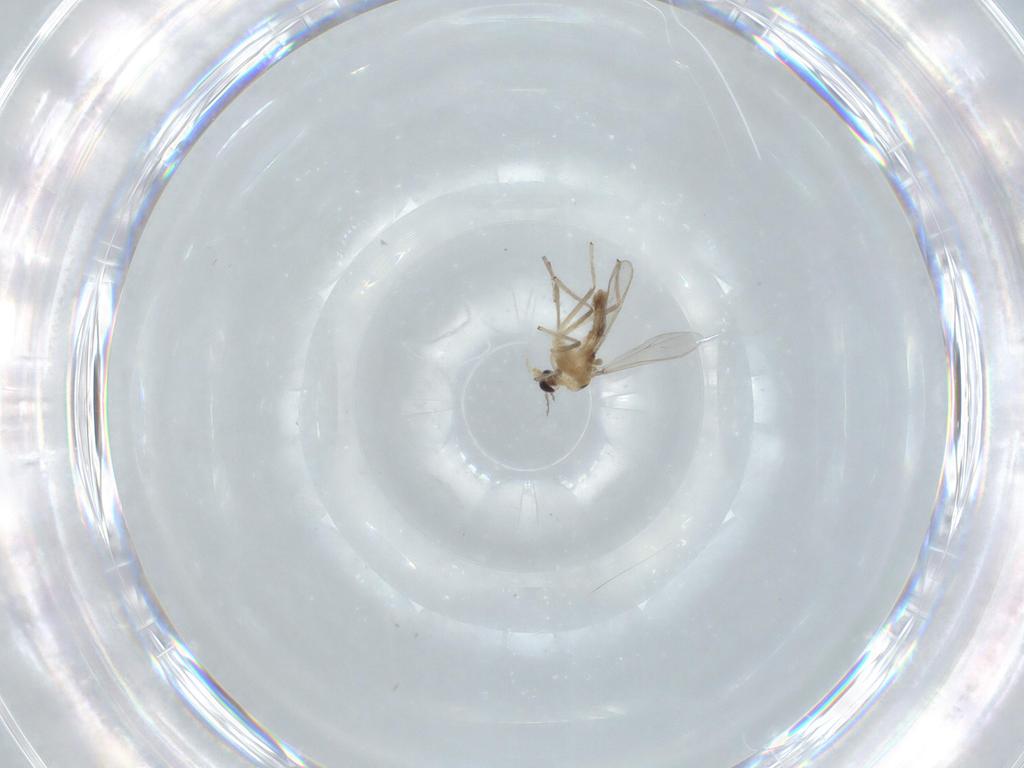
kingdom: Animalia
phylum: Arthropoda
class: Insecta
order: Diptera
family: Chironomidae
